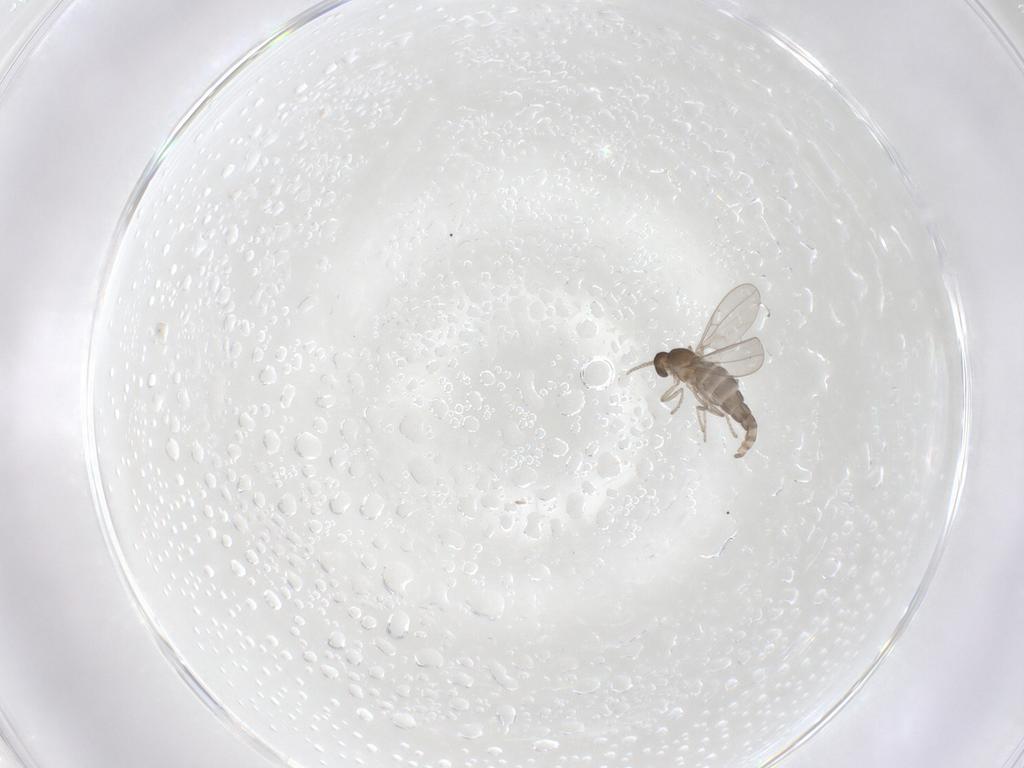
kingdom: Animalia
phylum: Arthropoda
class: Insecta
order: Diptera
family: Cecidomyiidae
